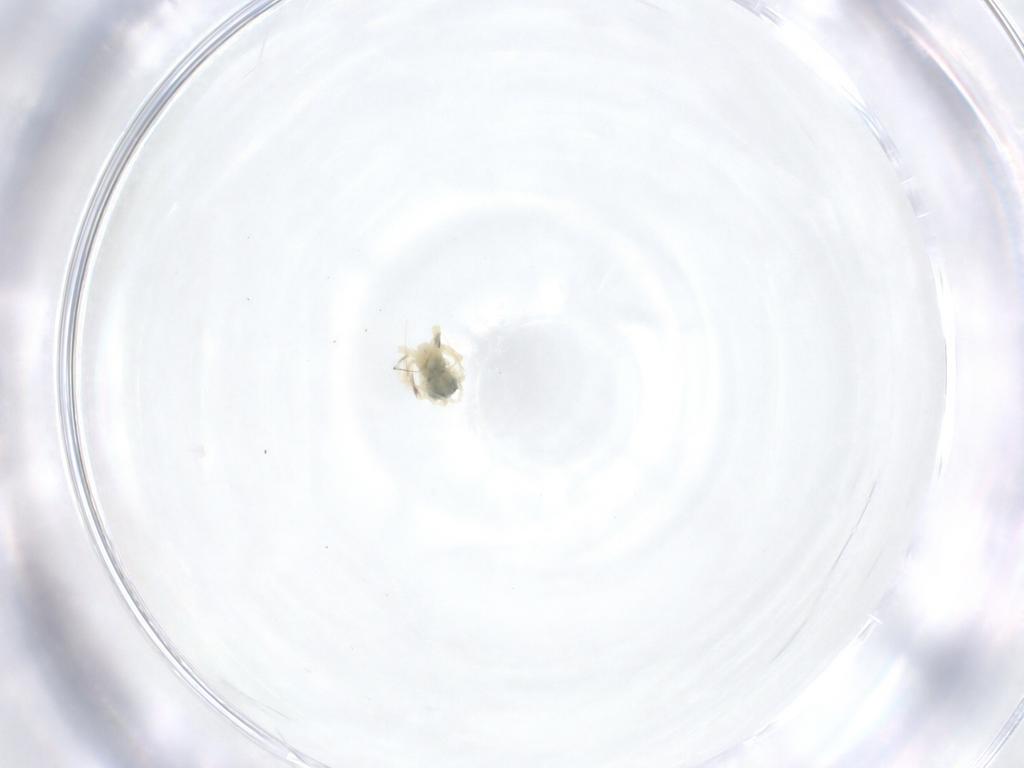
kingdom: Animalia
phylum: Arthropoda
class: Arachnida
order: Trombidiformes
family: Anystidae
